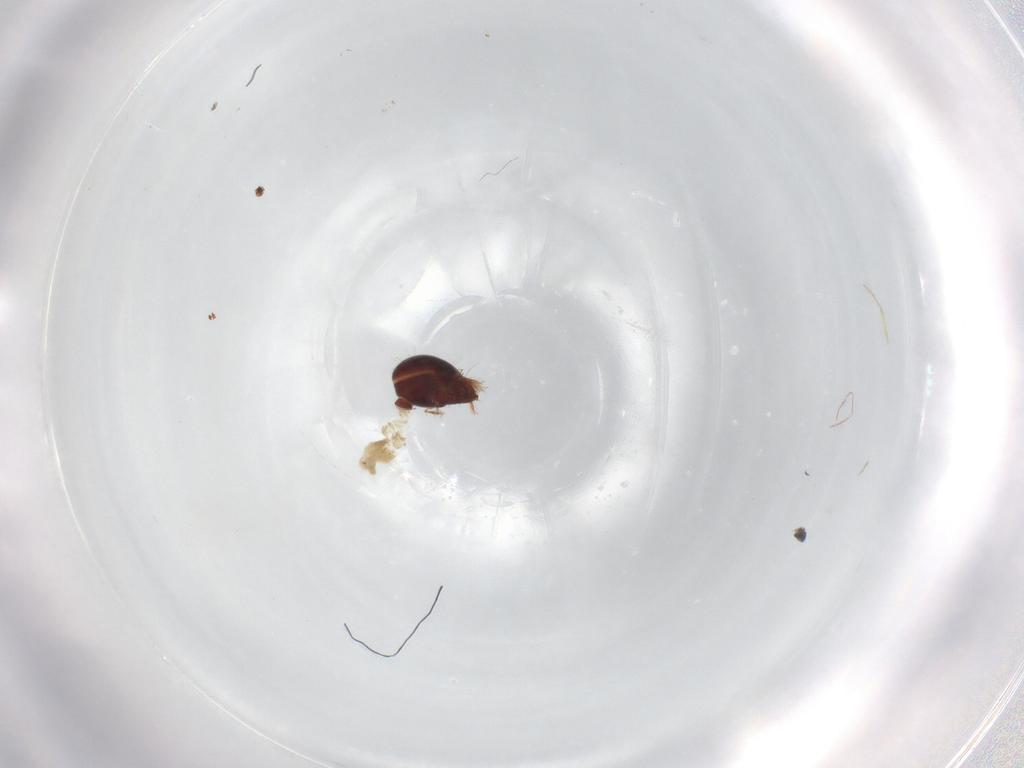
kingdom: Animalia
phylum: Arthropoda
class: Arachnida
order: Sarcoptiformes
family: Humerobatidae
